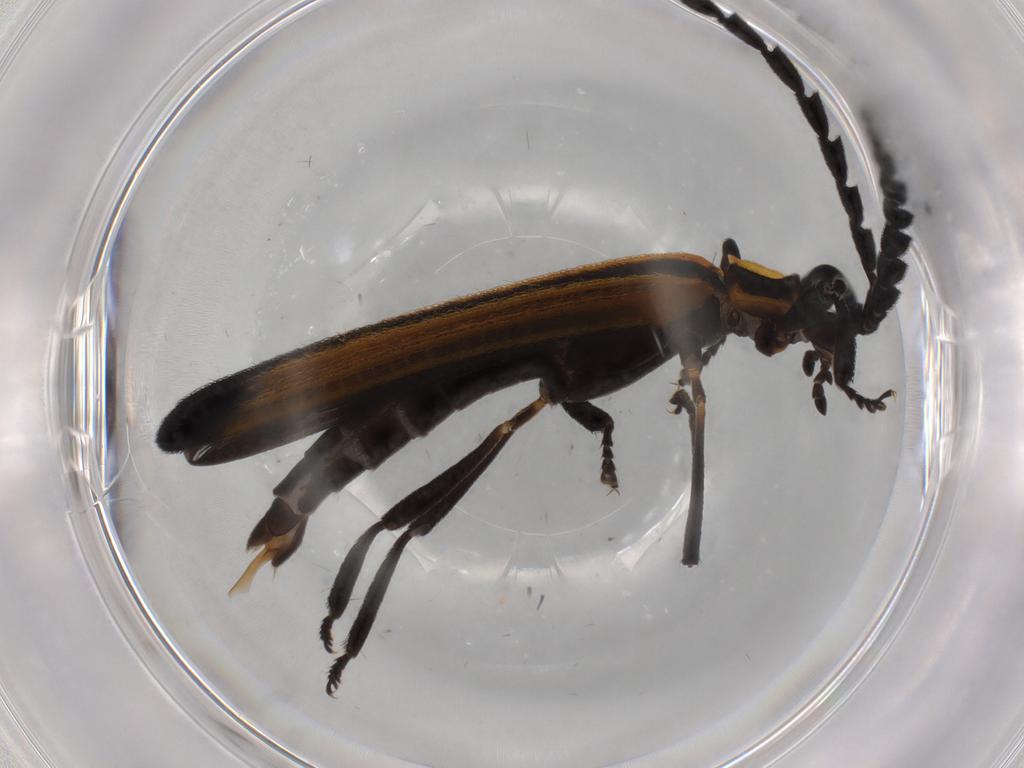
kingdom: Animalia
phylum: Arthropoda
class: Insecta
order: Coleoptera
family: Lycidae
